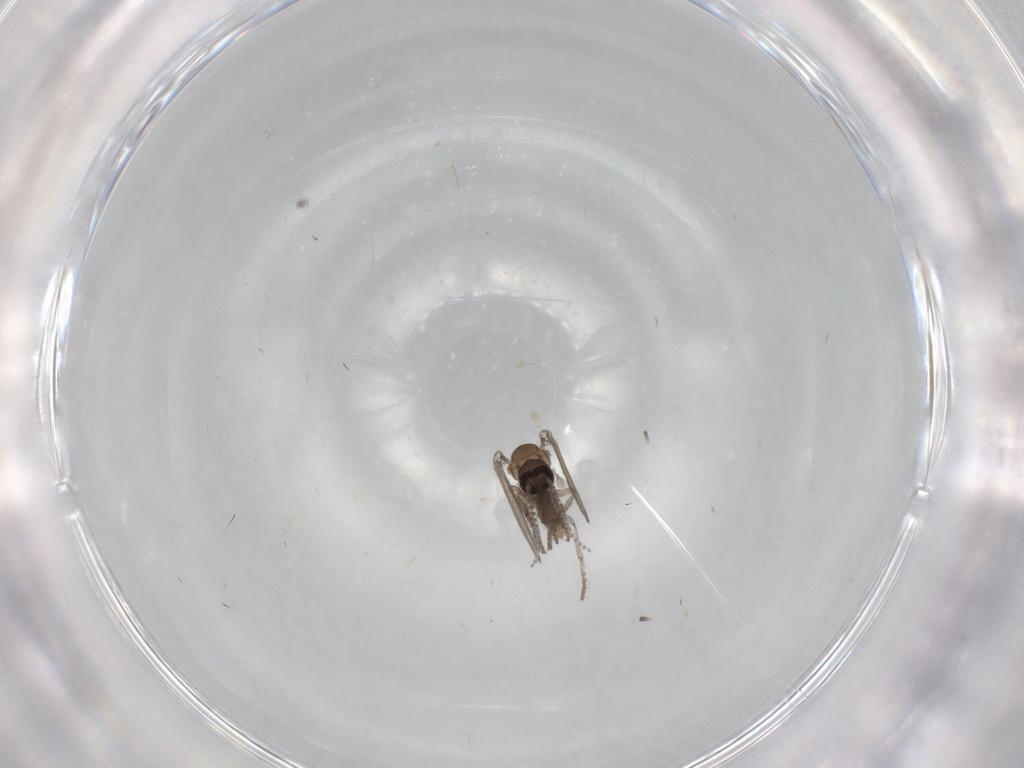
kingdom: Animalia
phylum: Arthropoda
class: Insecta
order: Diptera
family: Psychodidae
